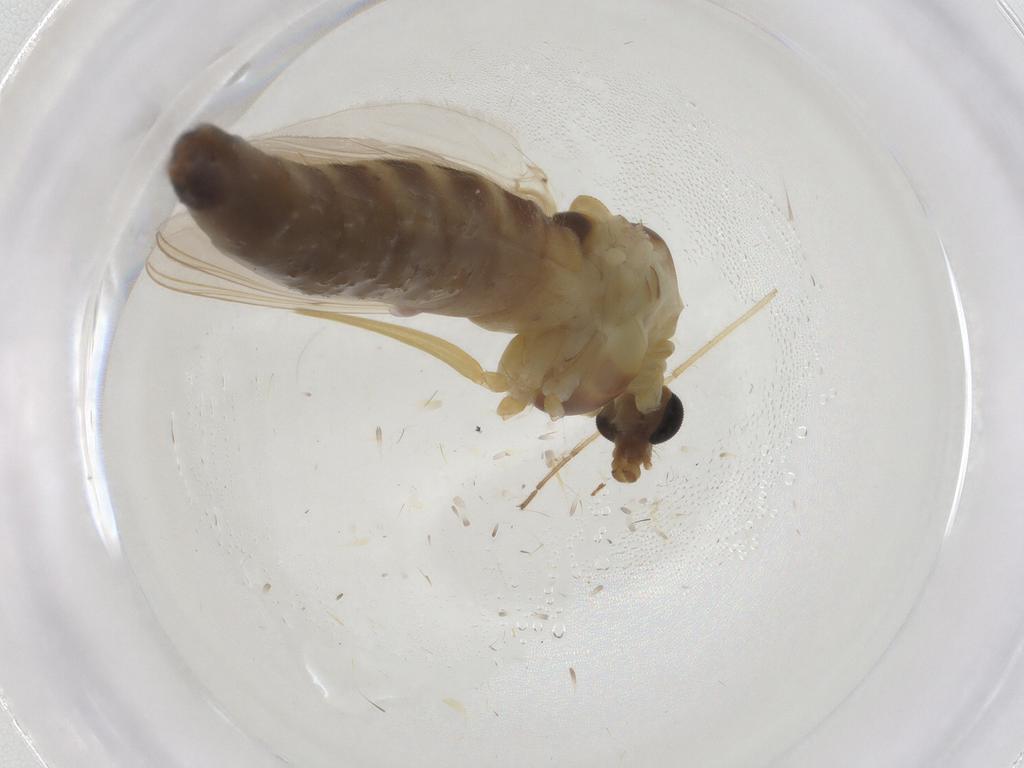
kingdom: Animalia
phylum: Arthropoda
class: Insecta
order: Diptera
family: Chironomidae
